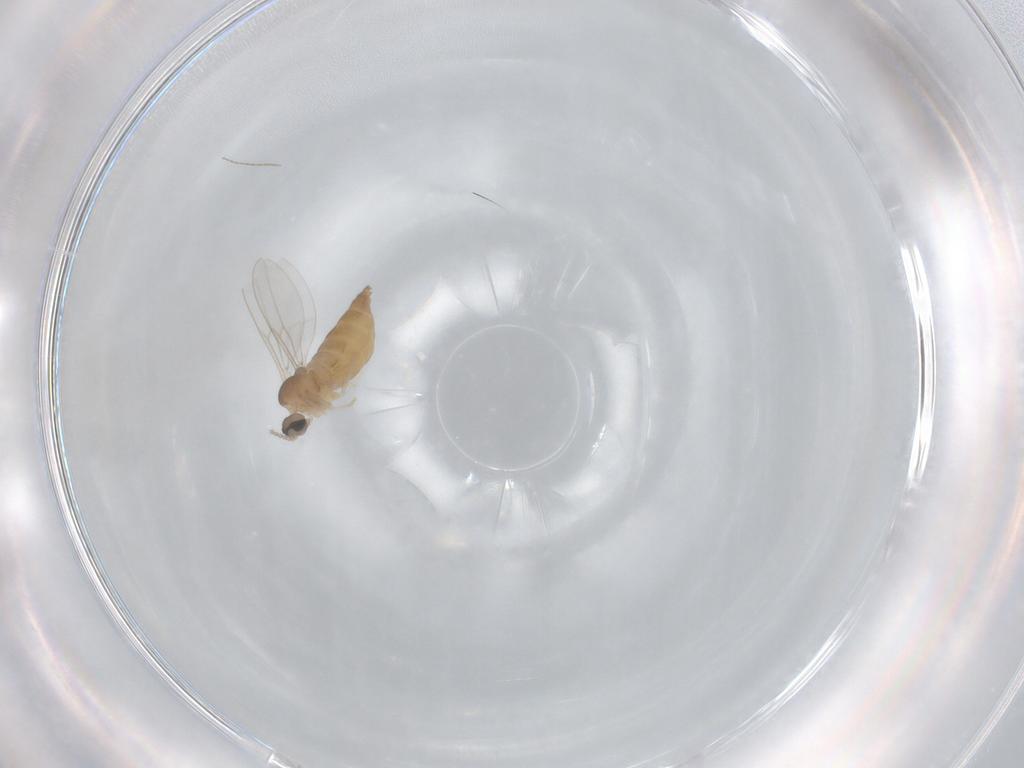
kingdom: Animalia
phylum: Arthropoda
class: Insecta
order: Diptera
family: Cecidomyiidae
